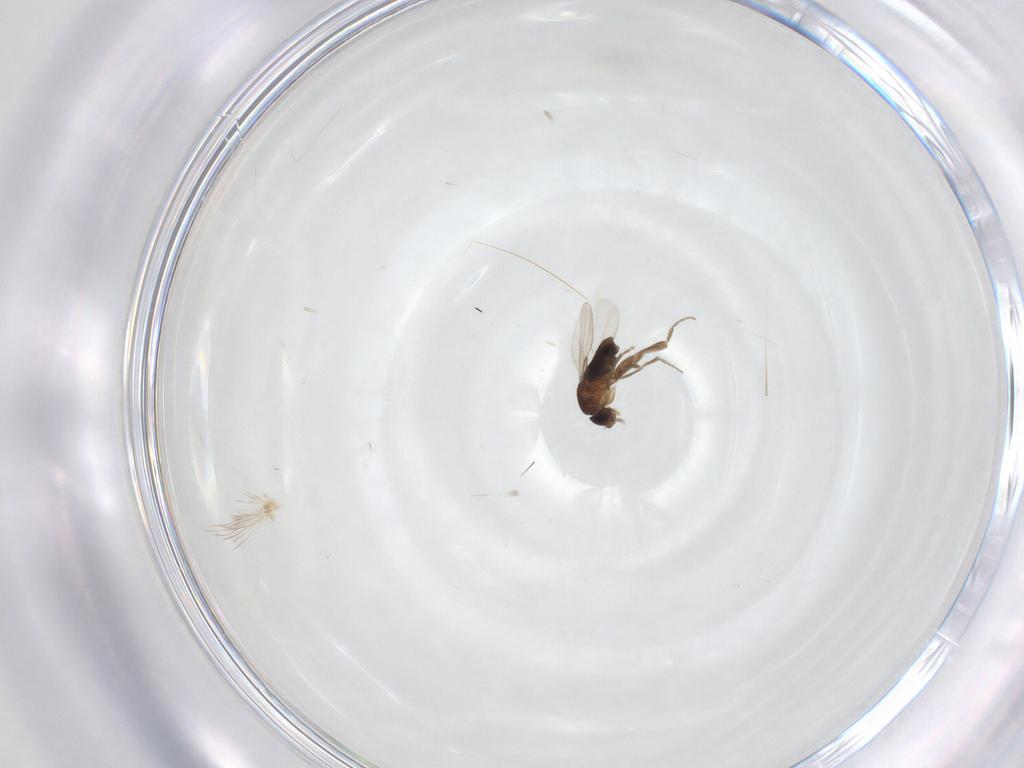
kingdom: Animalia
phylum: Arthropoda
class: Insecta
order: Diptera
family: Phoridae
